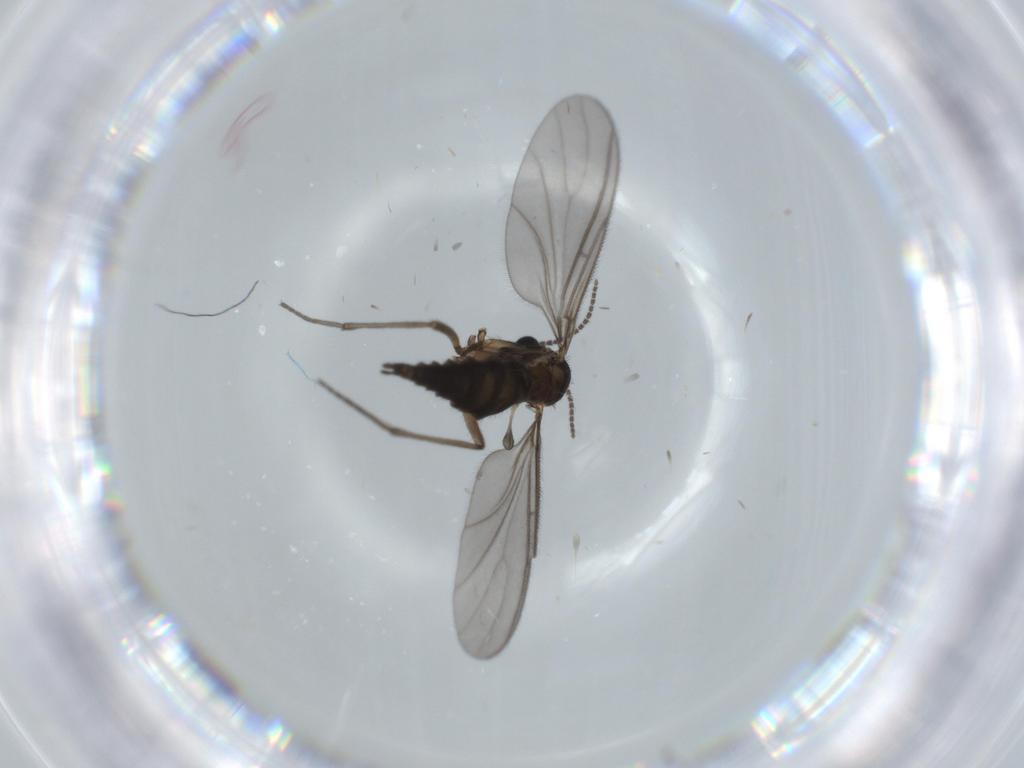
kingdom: Animalia
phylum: Arthropoda
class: Insecta
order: Diptera
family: Sciaridae
